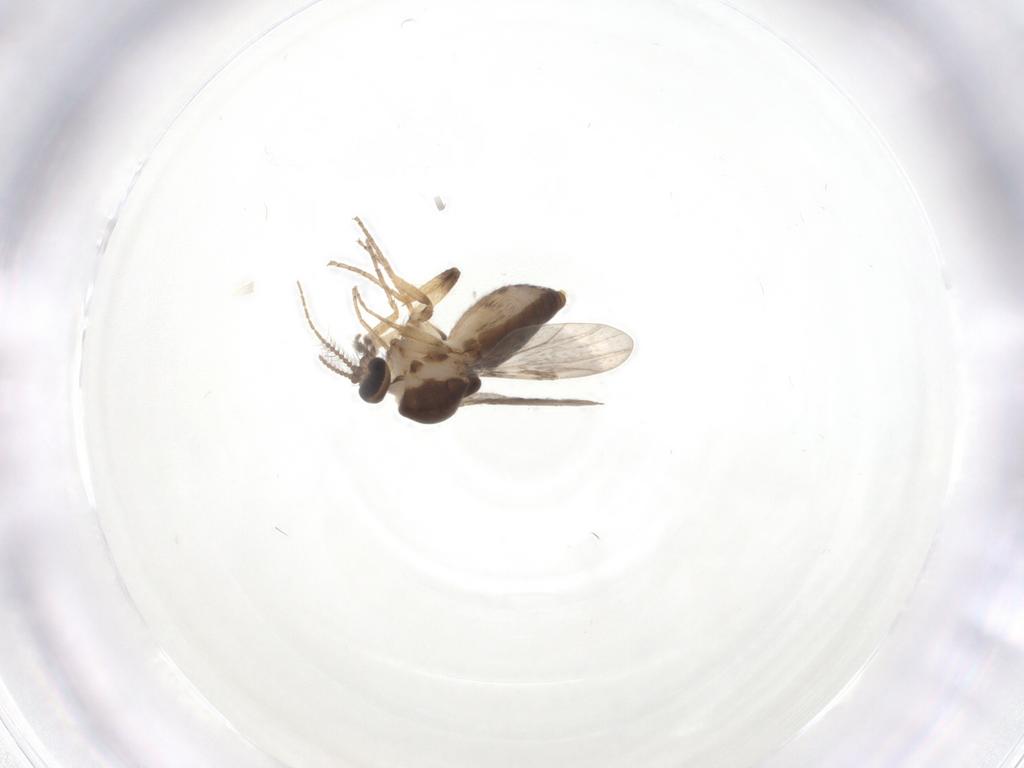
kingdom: Animalia
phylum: Arthropoda
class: Insecta
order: Diptera
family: Ceratopogonidae
